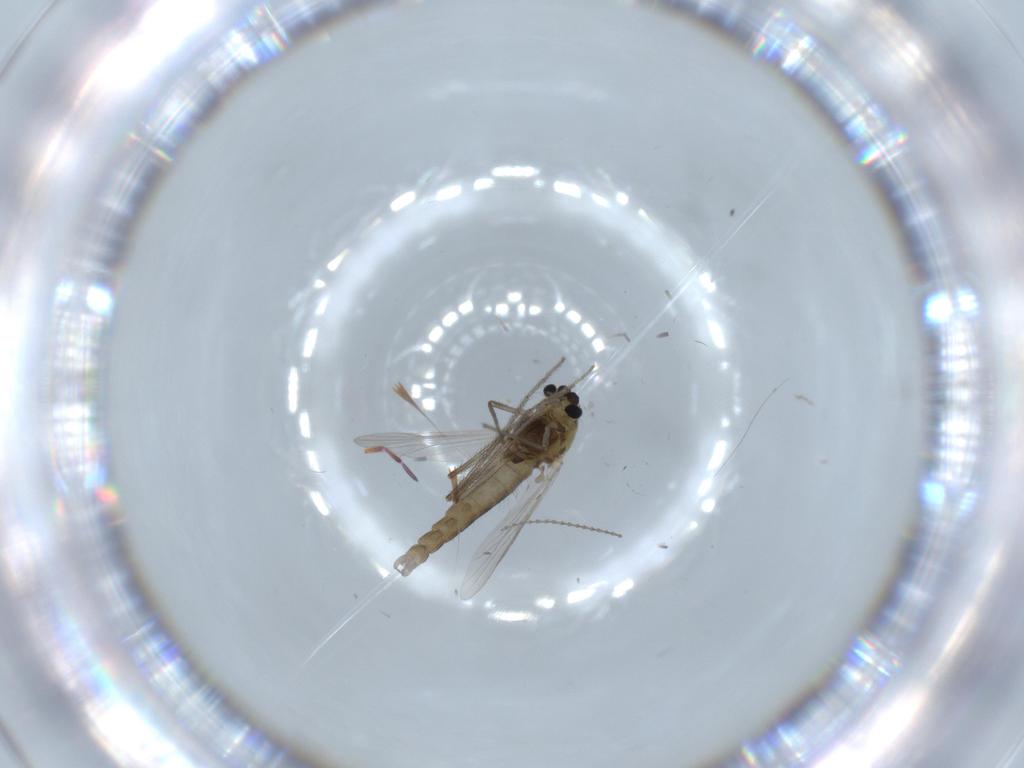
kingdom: Animalia
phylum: Arthropoda
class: Insecta
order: Diptera
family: Chironomidae
